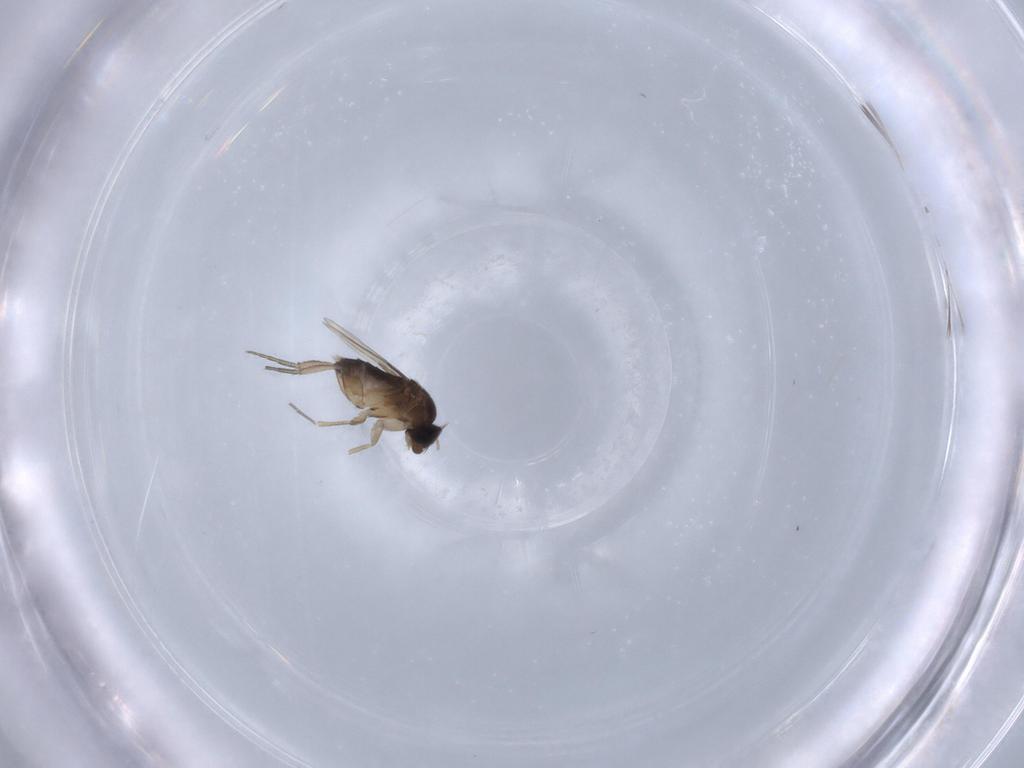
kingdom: Animalia
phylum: Arthropoda
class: Insecta
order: Diptera
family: Phoridae
